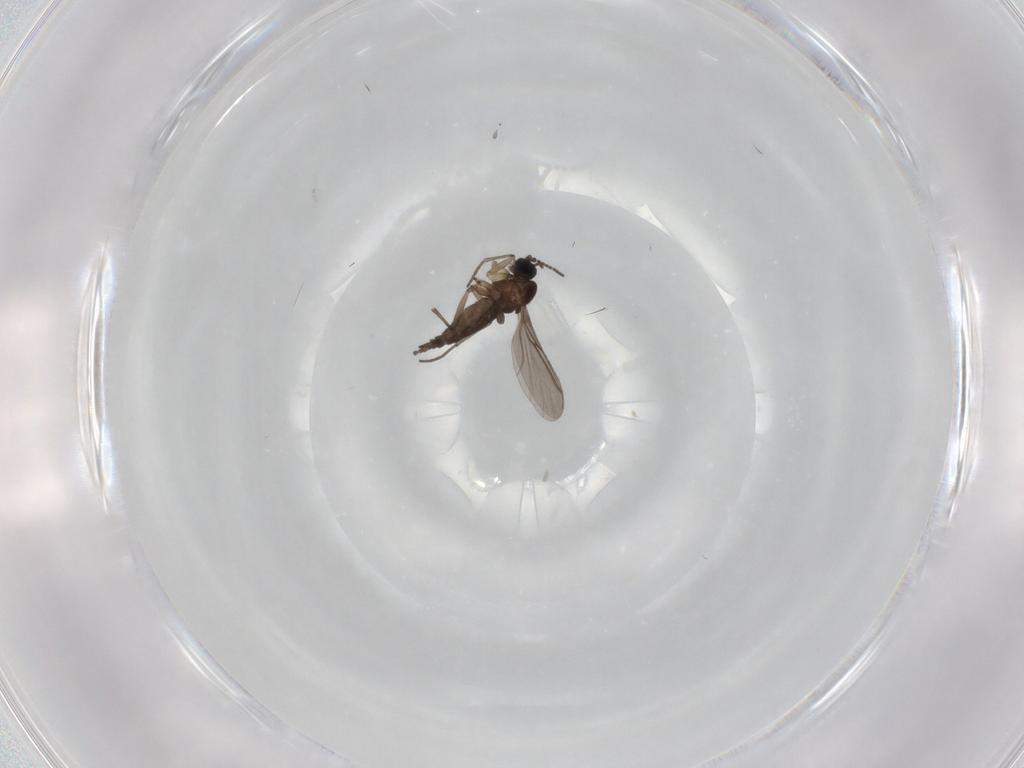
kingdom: Animalia
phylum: Arthropoda
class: Insecta
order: Diptera
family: Sciaridae
